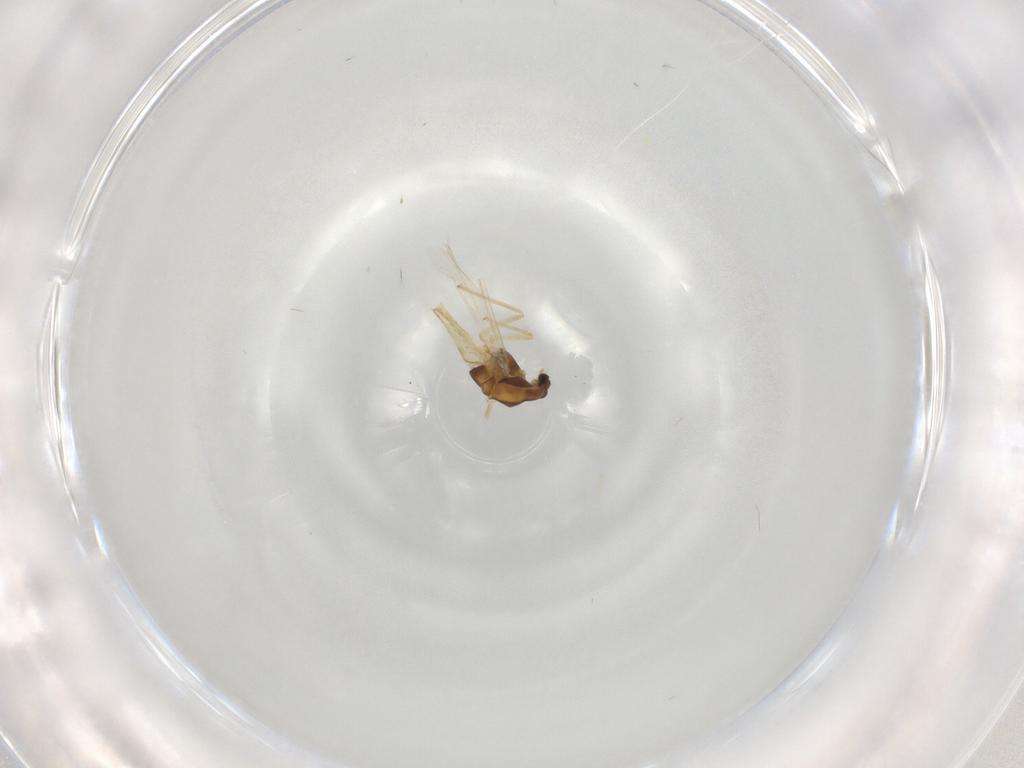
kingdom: Animalia
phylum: Arthropoda
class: Insecta
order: Diptera
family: Chironomidae
